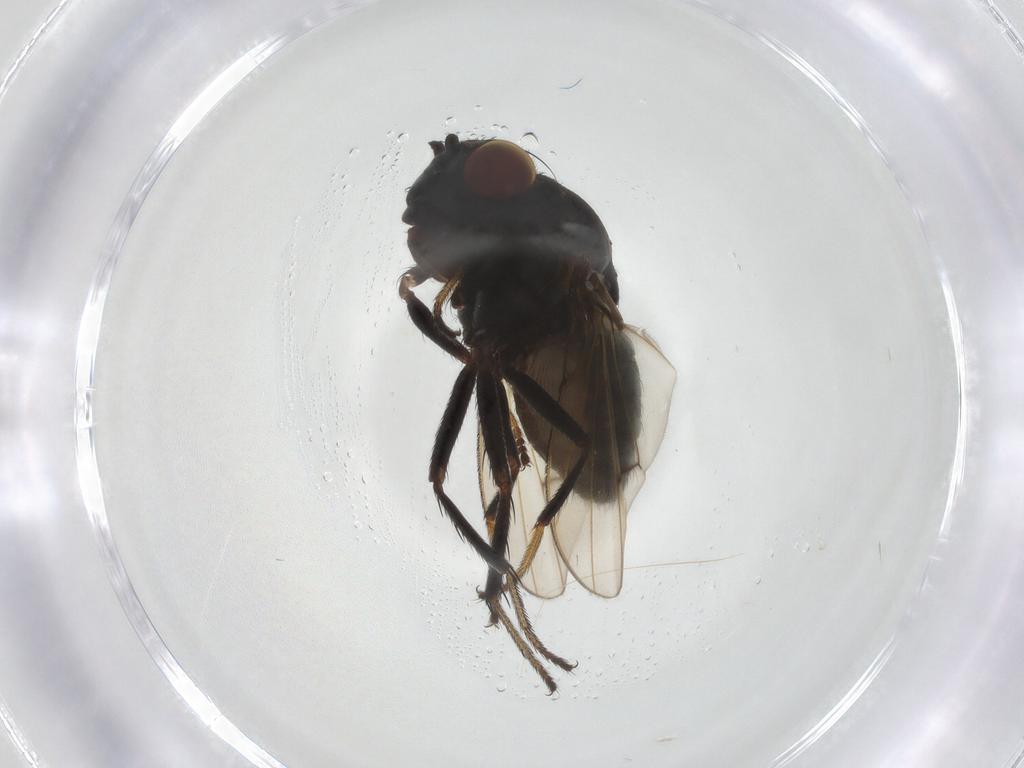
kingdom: Animalia
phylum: Arthropoda
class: Insecta
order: Diptera
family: Ephydridae
